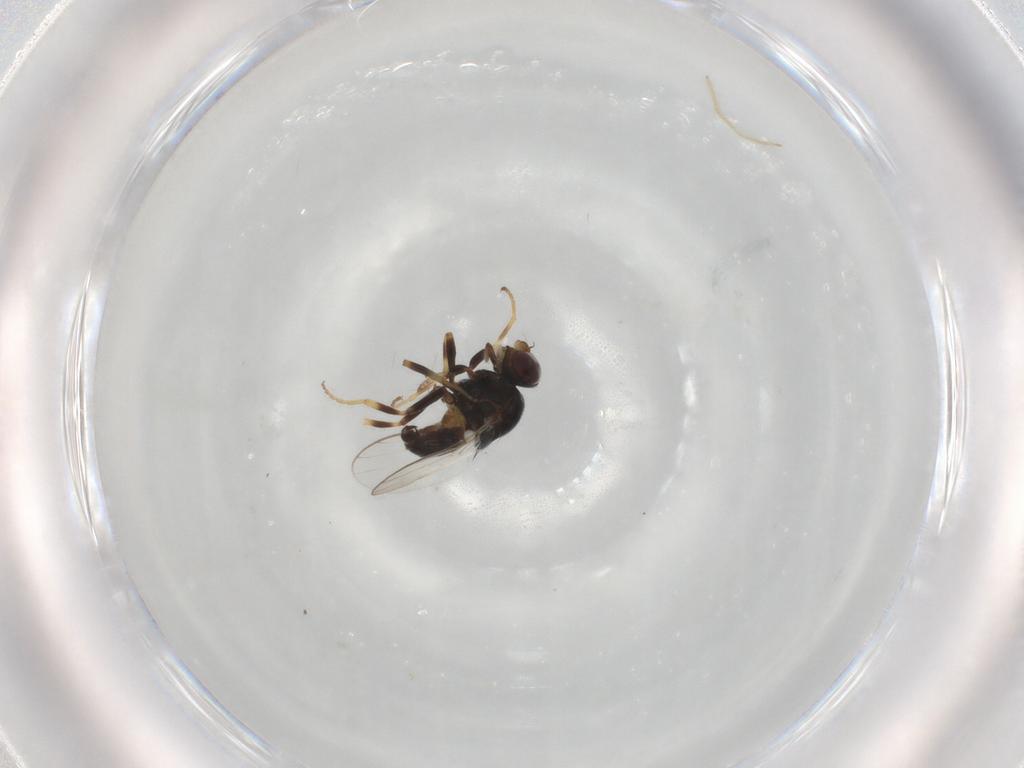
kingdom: Animalia
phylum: Arthropoda
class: Insecta
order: Diptera
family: Chloropidae
